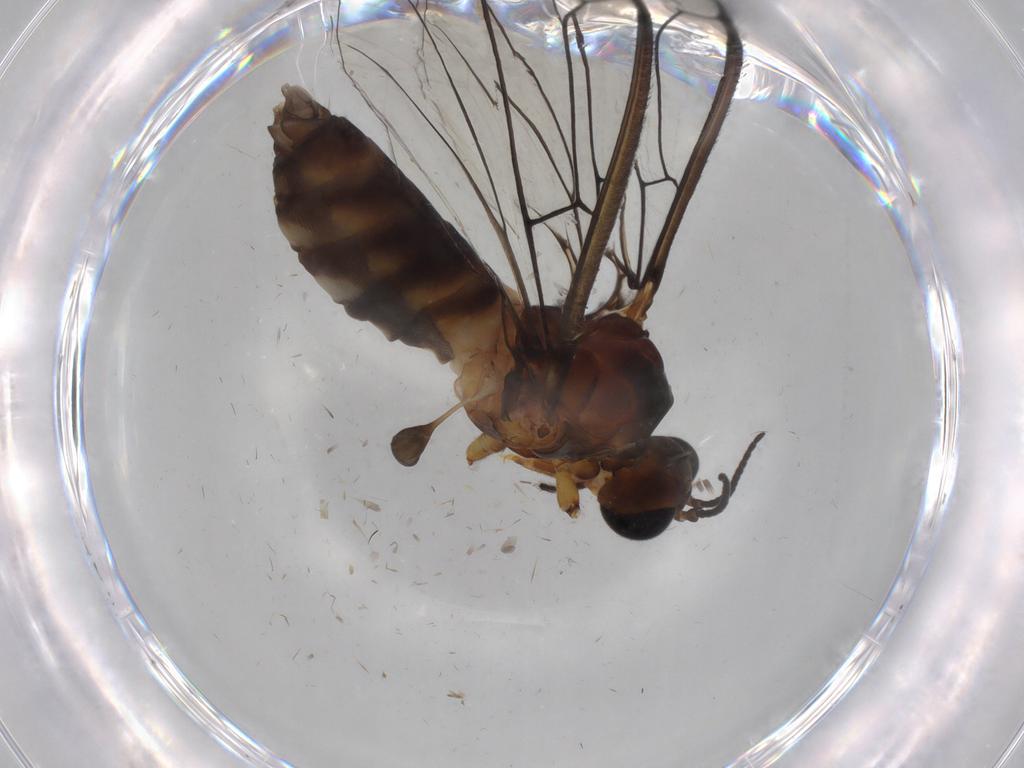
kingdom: Animalia
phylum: Arthropoda
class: Insecta
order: Diptera
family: Blephariceridae
